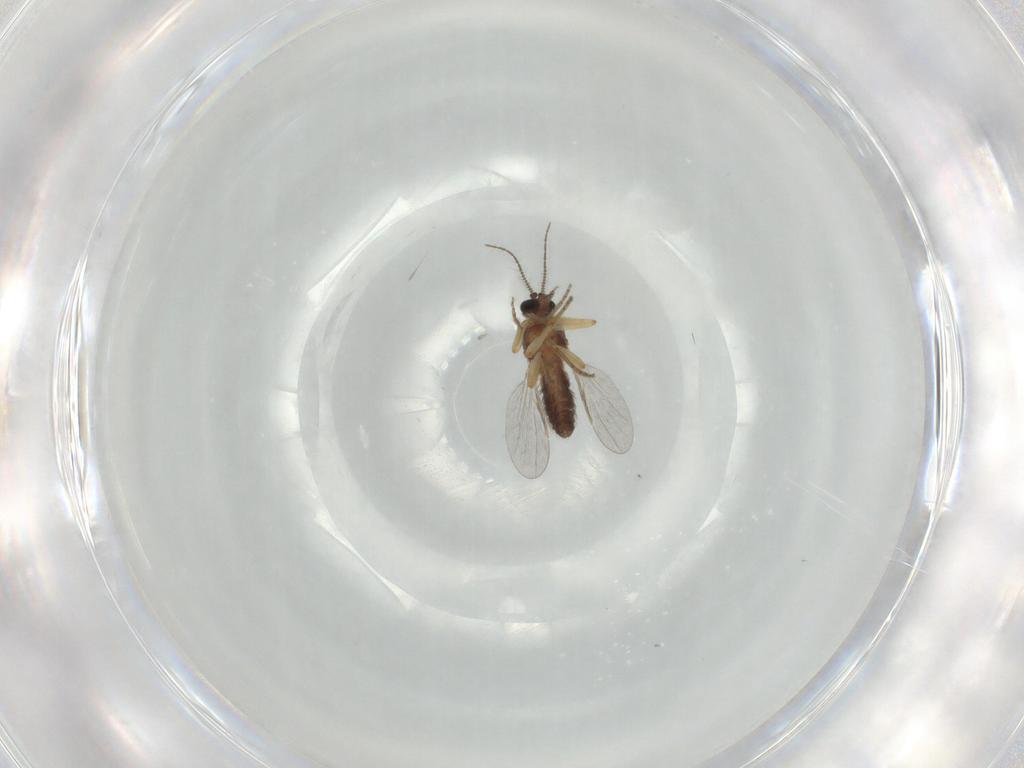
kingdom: Animalia
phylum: Arthropoda
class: Insecta
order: Diptera
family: Ceratopogonidae
